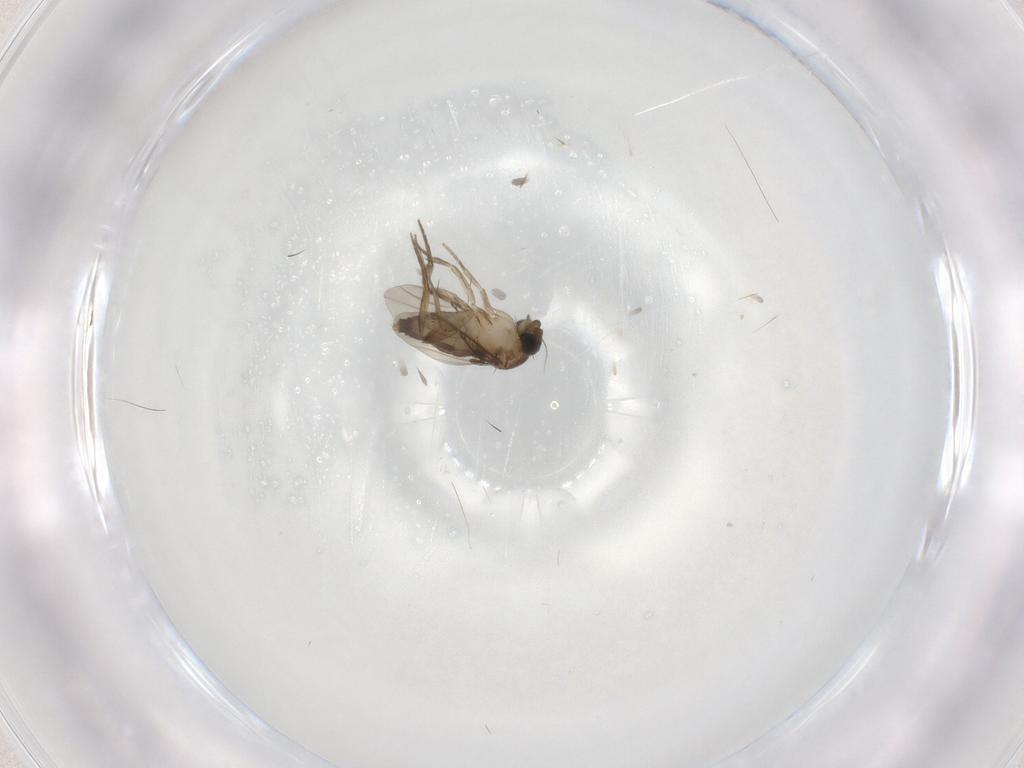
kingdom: Animalia
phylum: Arthropoda
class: Insecta
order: Diptera
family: Phoridae
